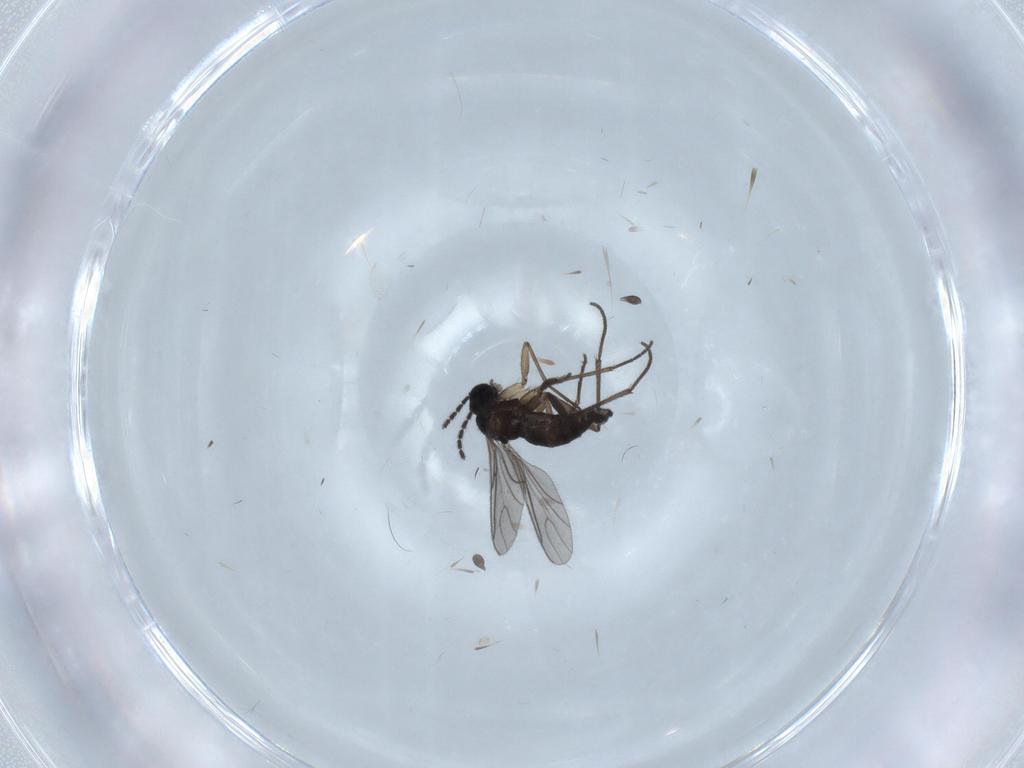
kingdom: Animalia
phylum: Arthropoda
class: Insecta
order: Diptera
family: Sciaridae
